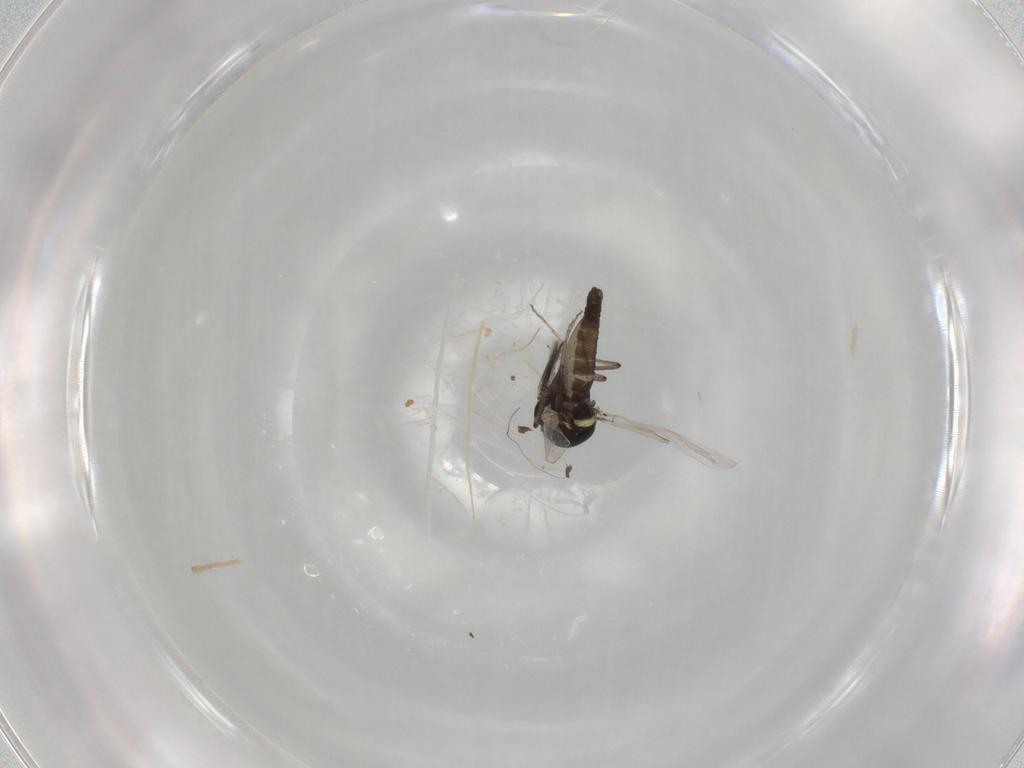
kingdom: Animalia
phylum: Arthropoda
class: Insecta
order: Diptera
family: Ceratopogonidae
